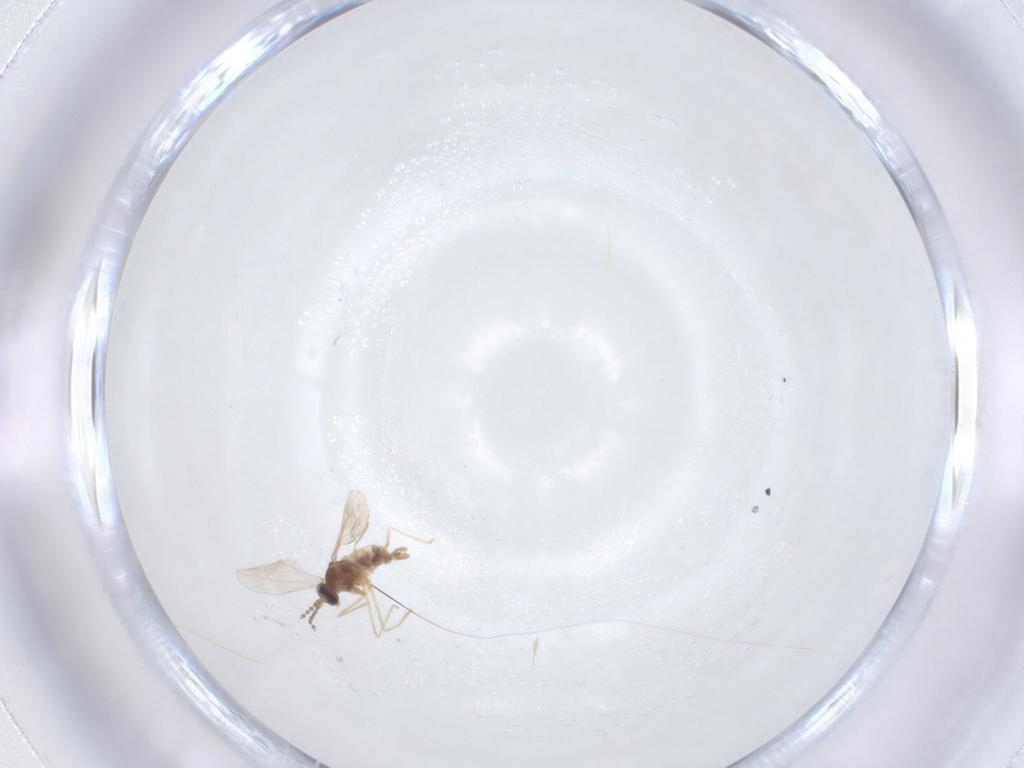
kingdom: Animalia
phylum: Arthropoda
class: Insecta
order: Diptera
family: Cecidomyiidae
